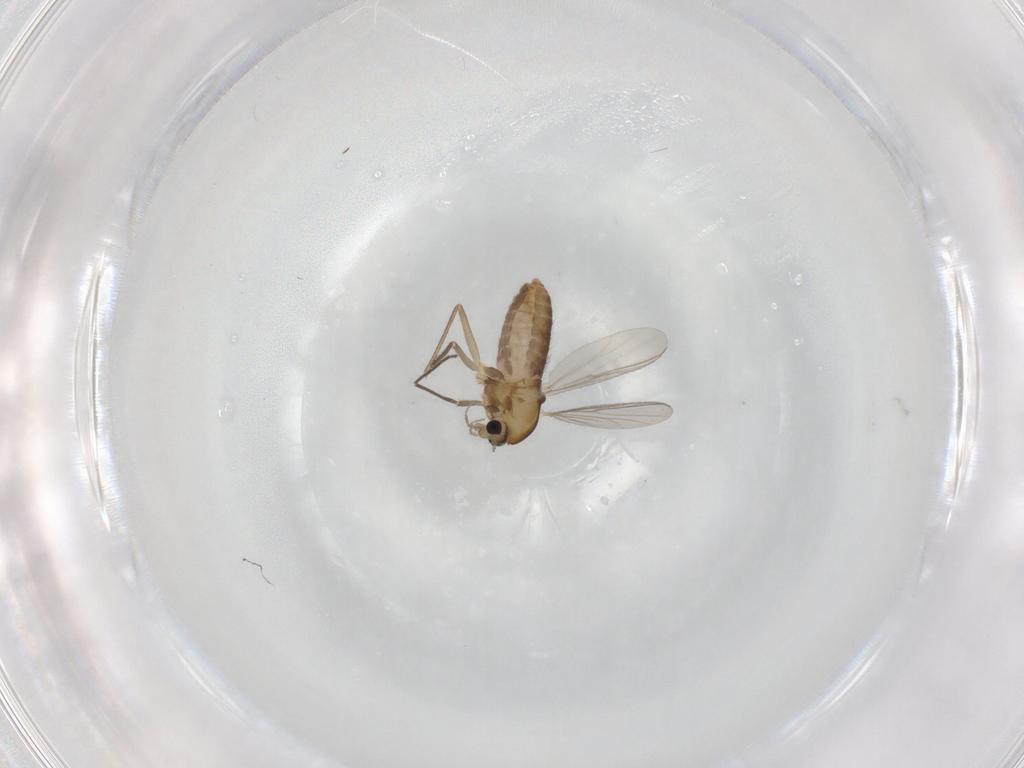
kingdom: Animalia
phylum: Arthropoda
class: Insecta
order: Diptera
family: Chironomidae
